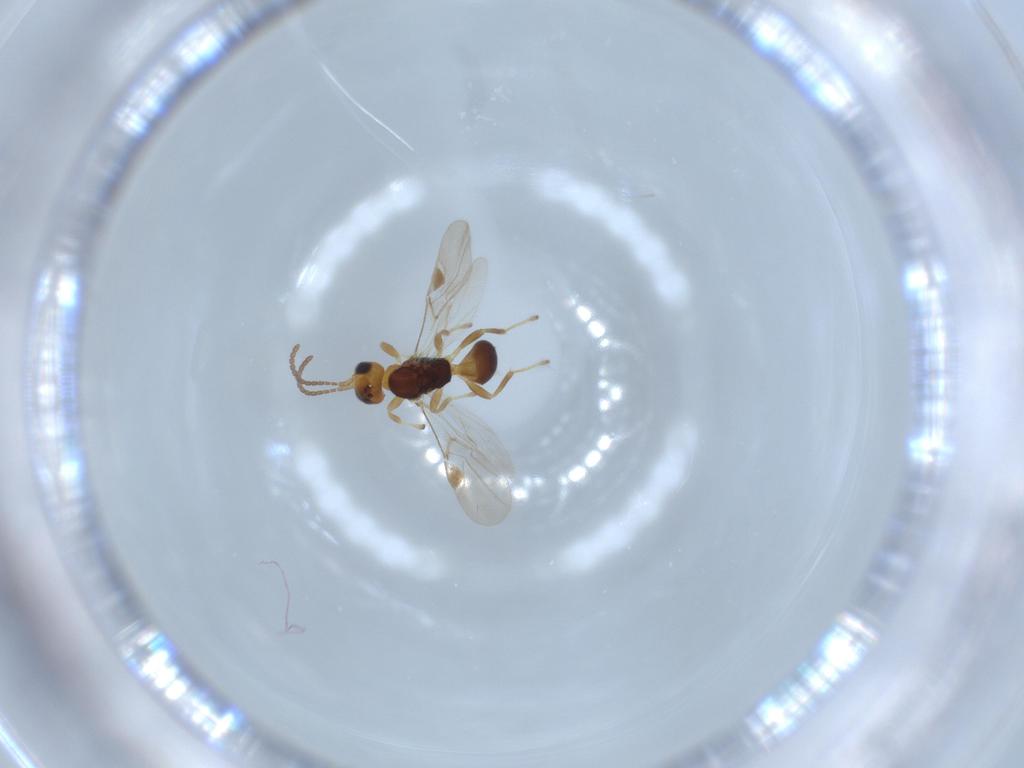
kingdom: Animalia
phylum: Arthropoda
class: Insecta
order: Hymenoptera
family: Braconidae
